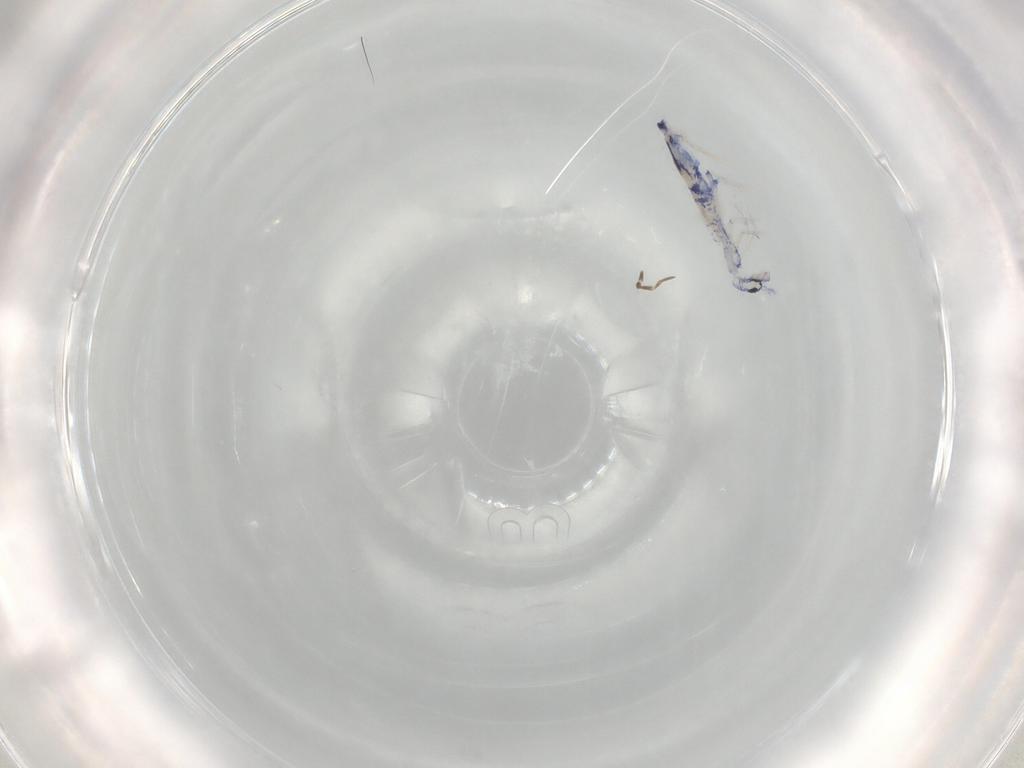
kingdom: Animalia
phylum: Arthropoda
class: Collembola
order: Entomobryomorpha
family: Entomobryidae
